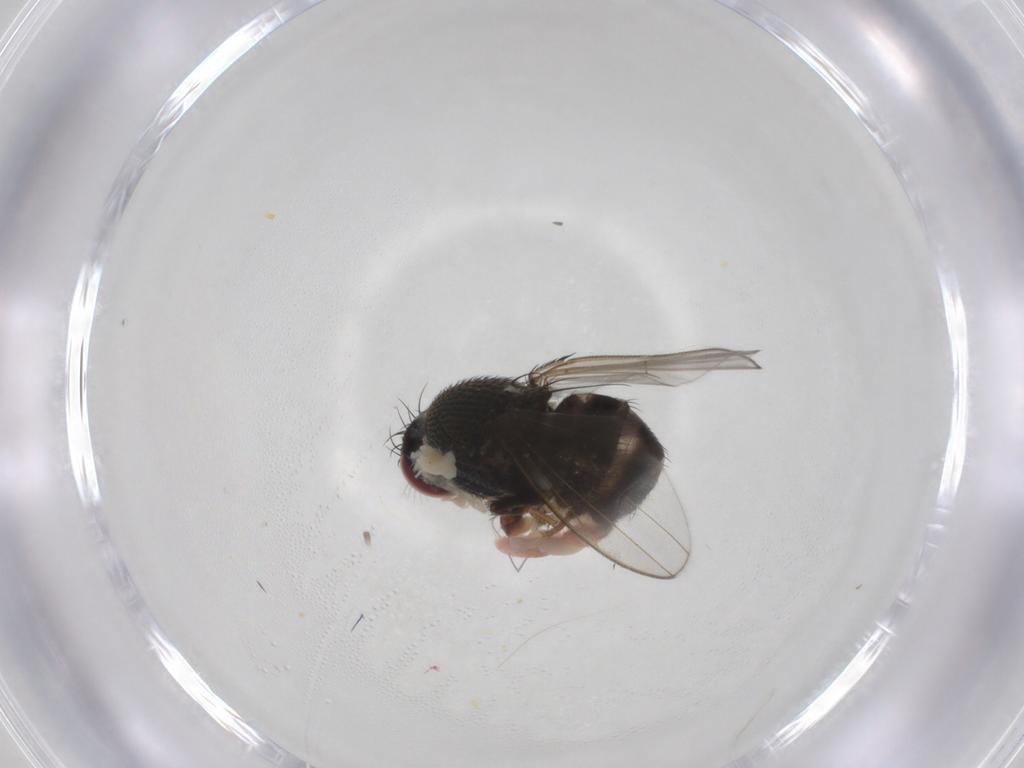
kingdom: Animalia
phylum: Arthropoda
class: Insecta
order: Diptera
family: Ephydridae
